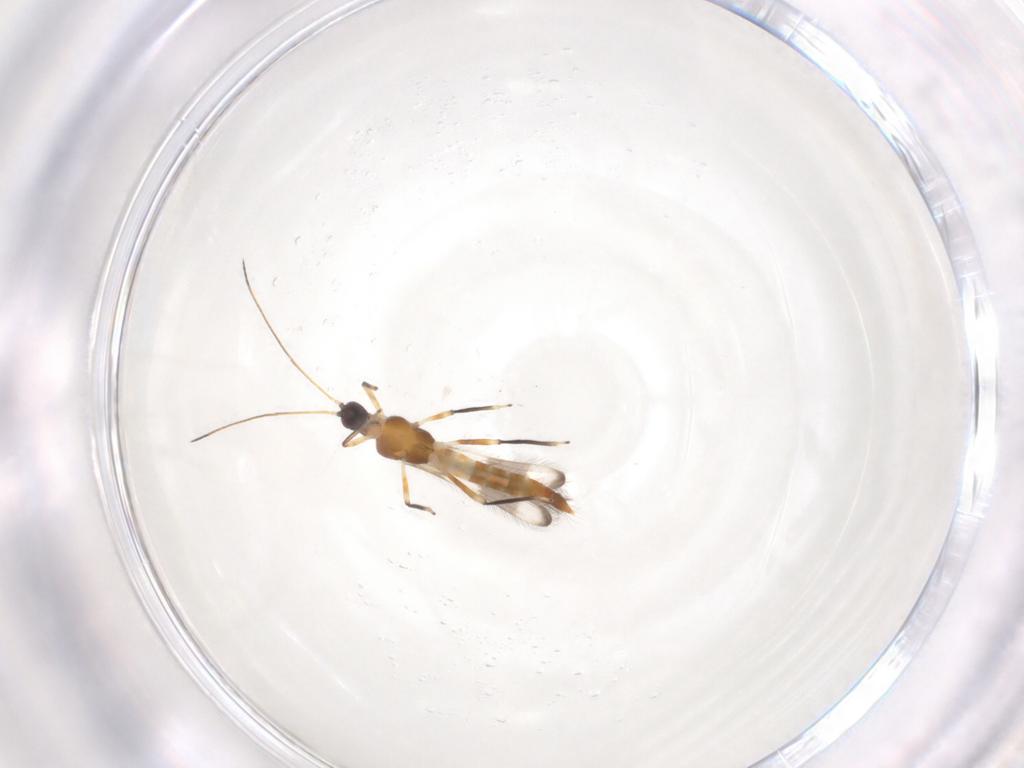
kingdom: Animalia
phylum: Arthropoda
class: Insecta
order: Thysanoptera
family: Aeolothripidae
